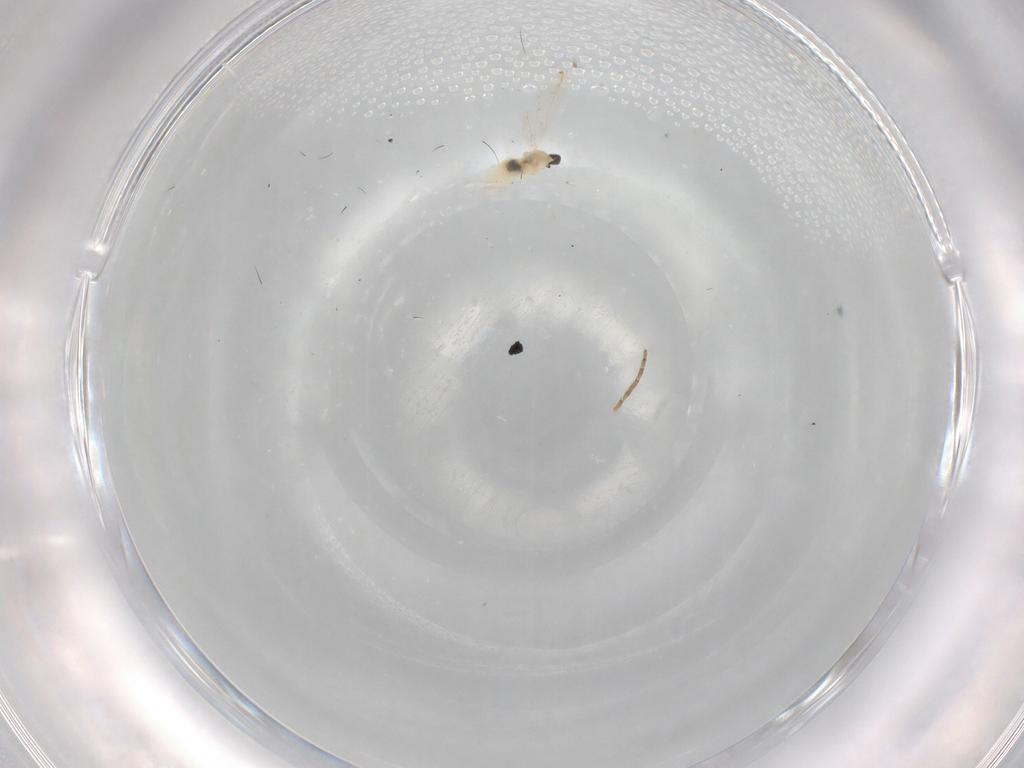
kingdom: Animalia
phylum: Arthropoda
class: Insecta
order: Diptera
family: Cecidomyiidae
